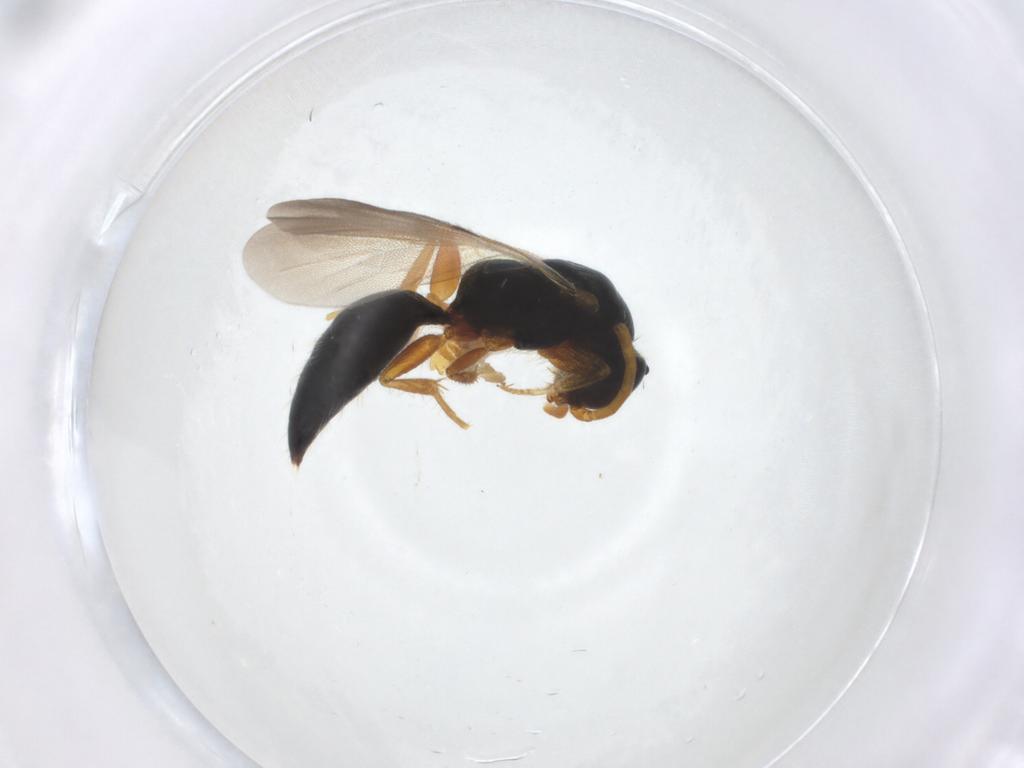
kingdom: Animalia
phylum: Arthropoda
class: Insecta
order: Hymenoptera
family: Bethylidae
